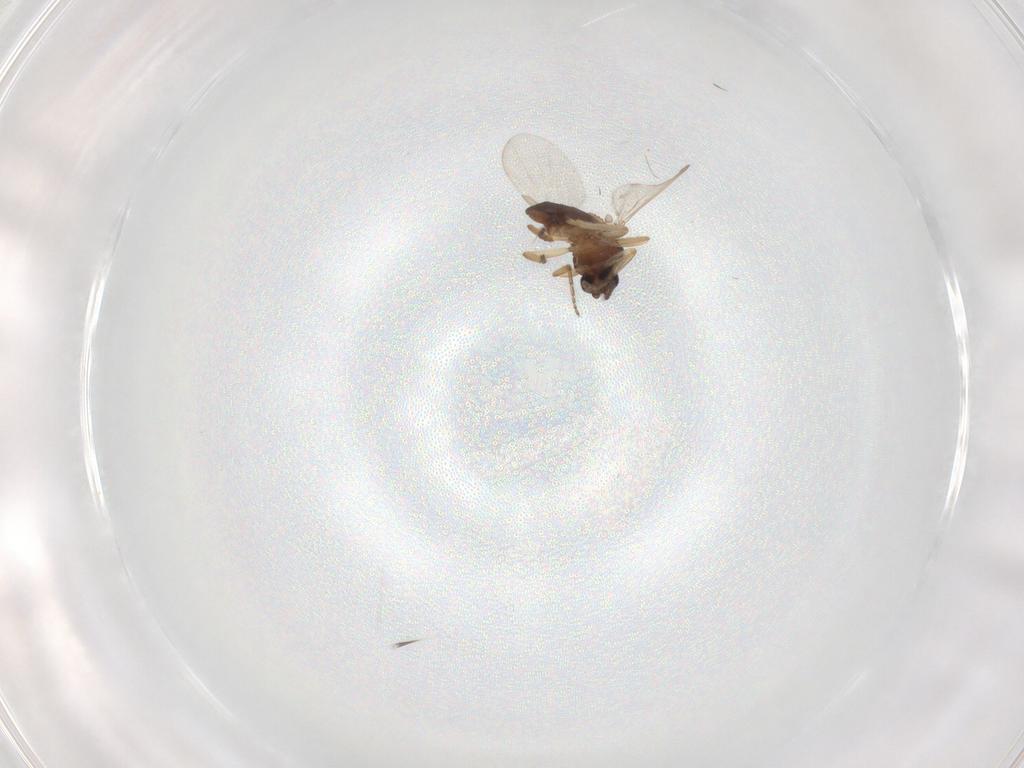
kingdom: Animalia
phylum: Arthropoda
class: Insecta
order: Diptera
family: Ceratopogonidae
